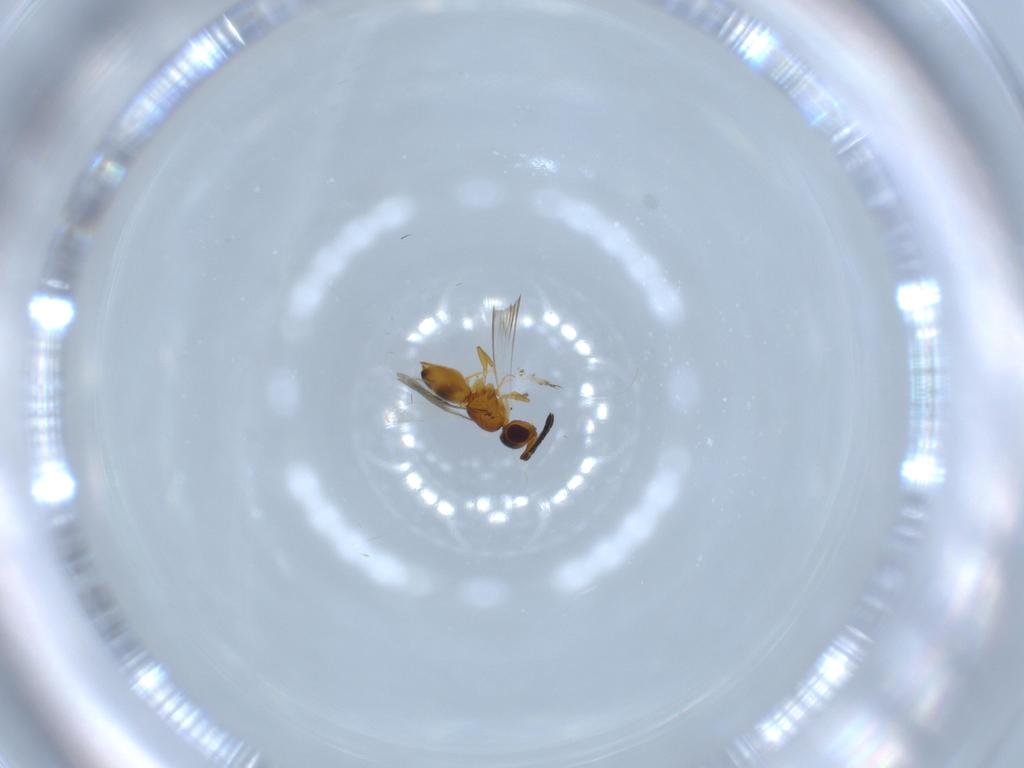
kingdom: Animalia
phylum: Arthropoda
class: Insecta
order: Hymenoptera
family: Ceraphronidae
